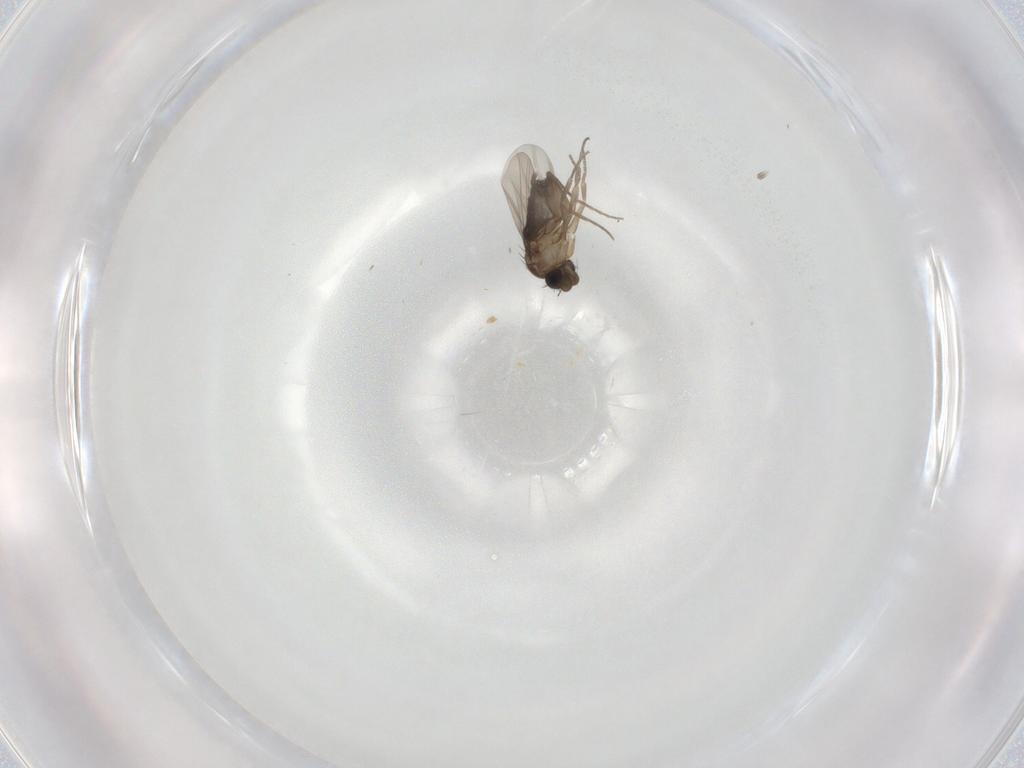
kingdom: Animalia
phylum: Arthropoda
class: Insecta
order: Diptera
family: Phoridae
